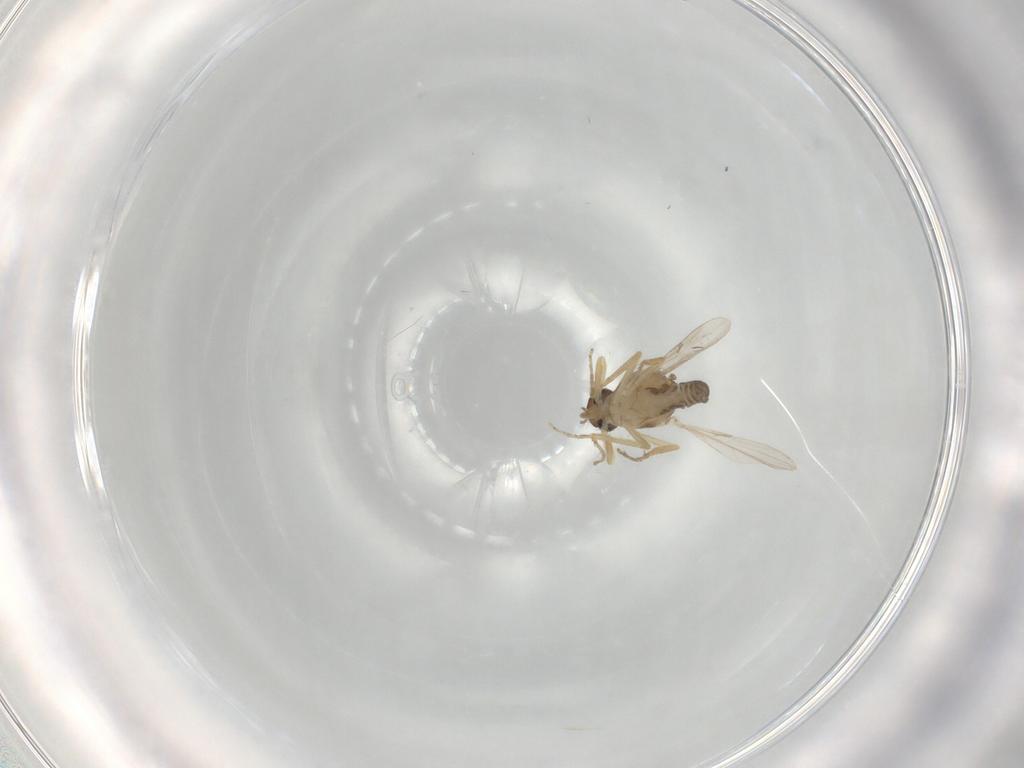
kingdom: Animalia
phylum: Arthropoda
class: Insecta
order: Diptera
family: Ceratopogonidae
